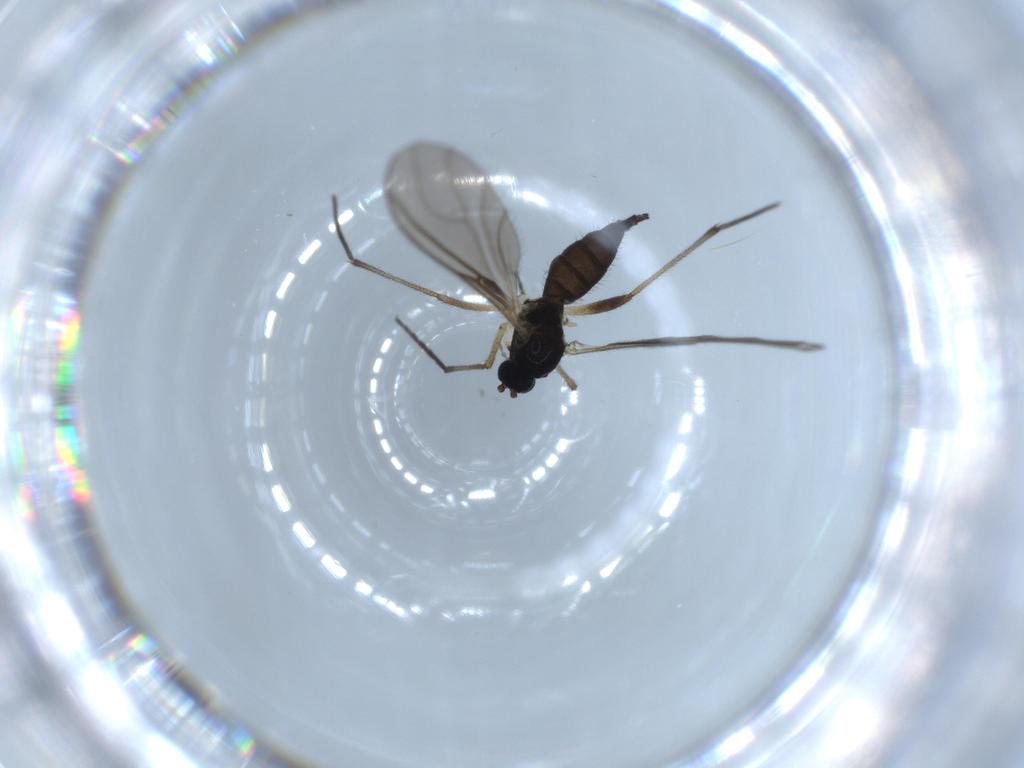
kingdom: Animalia
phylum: Arthropoda
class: Insecta
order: Diptera
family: Sciaridae
